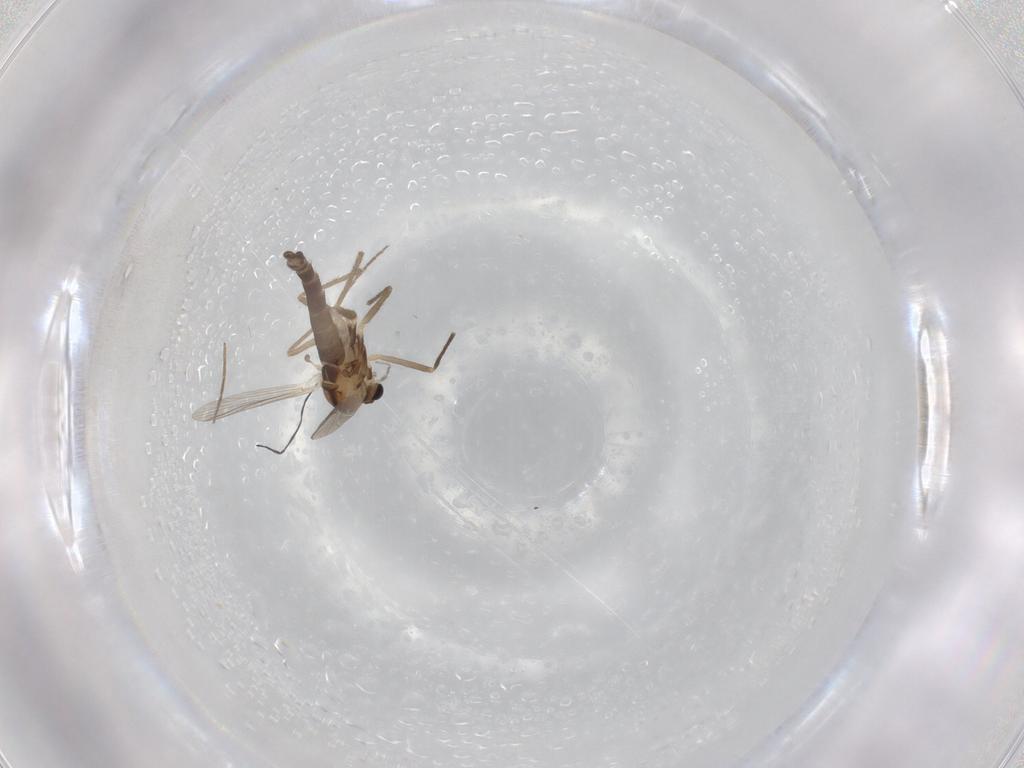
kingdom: Animalia
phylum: Arthropoda
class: Insecta
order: Diptera
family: Chironomidae
